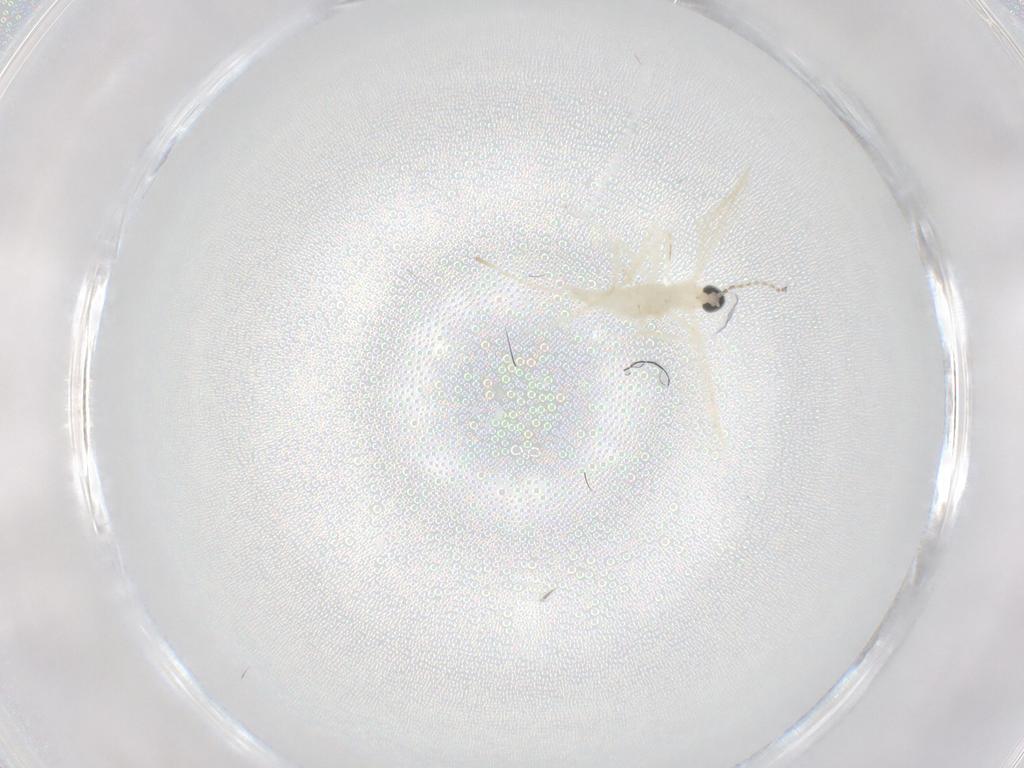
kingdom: Animalia
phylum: Arthropoda
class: Insecta
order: Diptera
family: Cecidomyiidae
